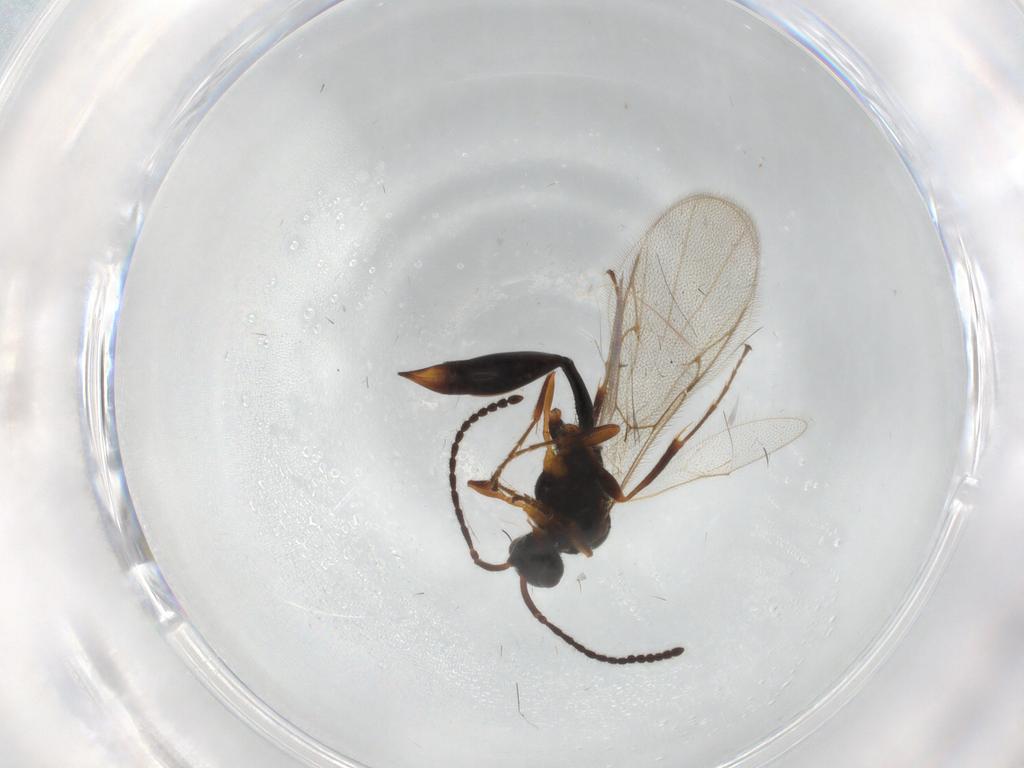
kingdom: Animalia
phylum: Arthropoda
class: Insecta
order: Hymenoptera
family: Diapriidae
